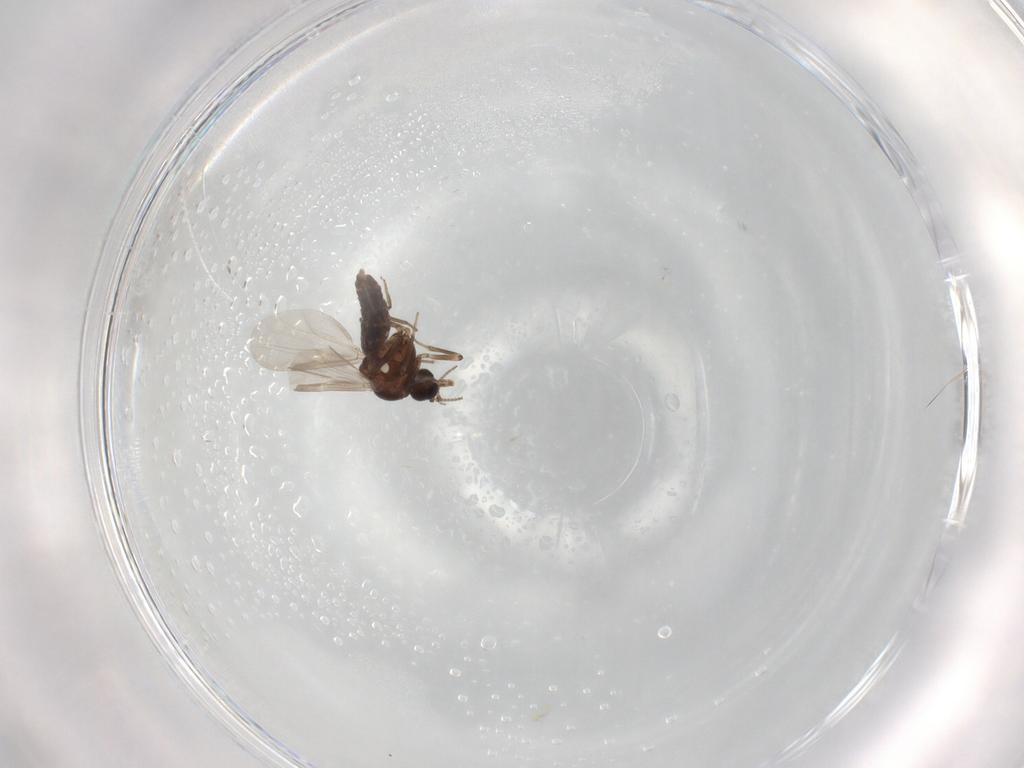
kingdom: Animalia
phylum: Arthropoda
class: Insecta
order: Diptera
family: Ceratopogonidae
